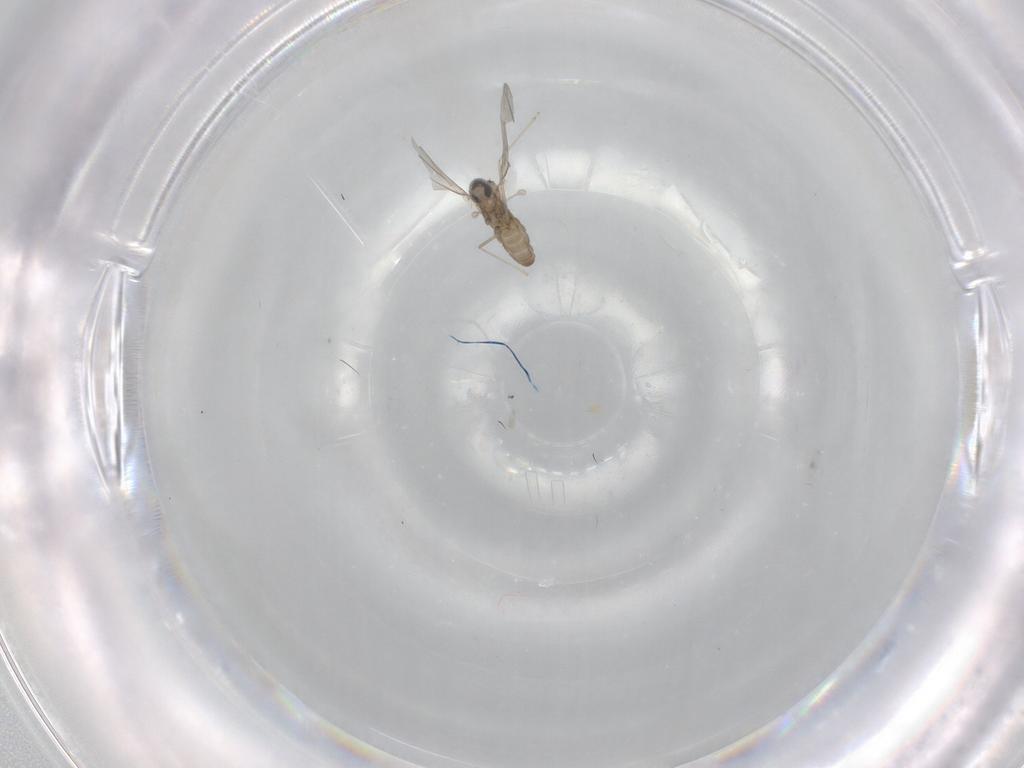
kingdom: Animalia
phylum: Arthropoda
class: Insecta
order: Diptera
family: Cecidomyiidae
